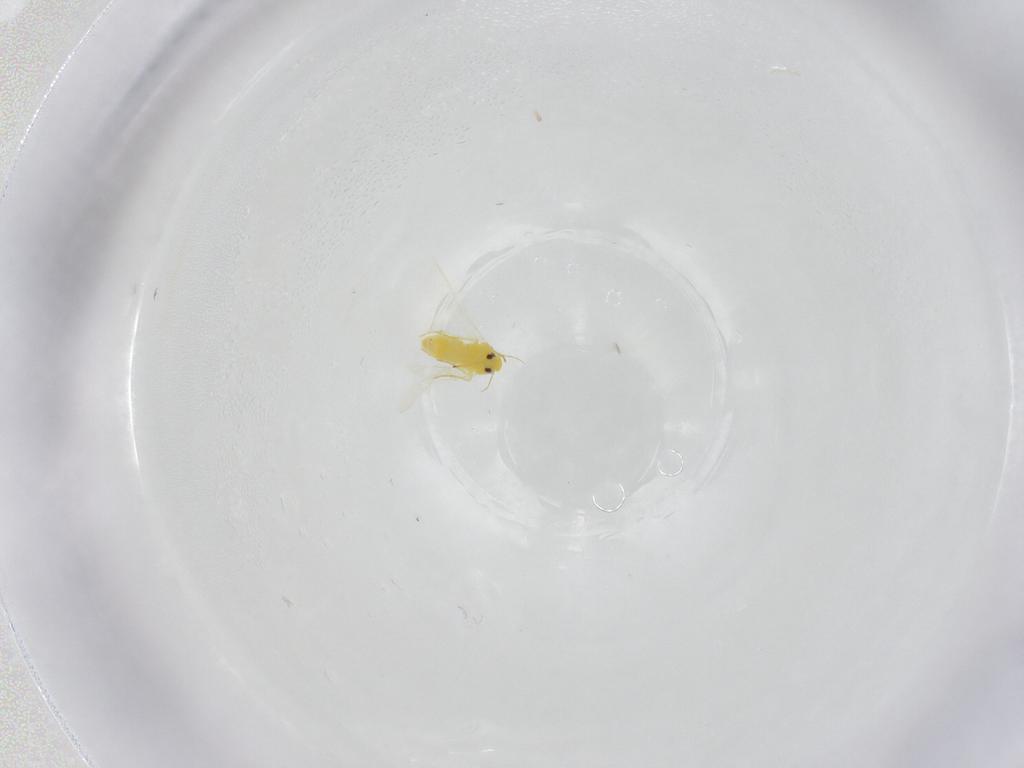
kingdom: Animalia
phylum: Arthropoda
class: Insecta
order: Hemiptera
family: Aleyrodidae
